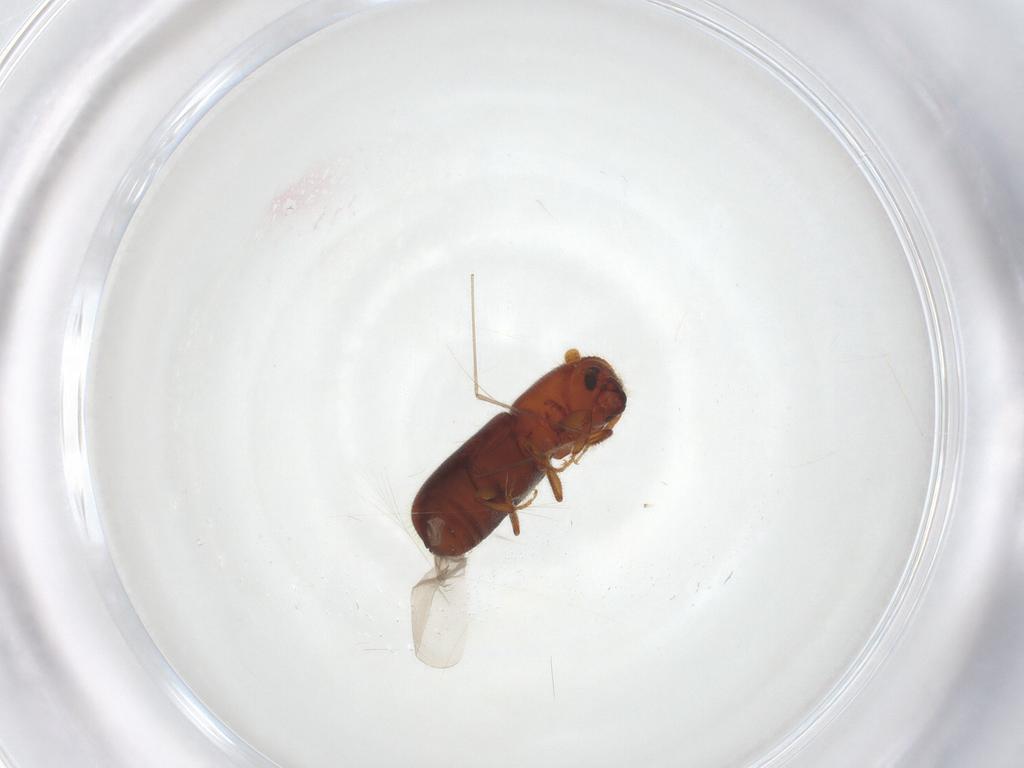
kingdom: Animalia
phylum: Arthropoda
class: Insecta
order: Coleoptera
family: Curculionidae
